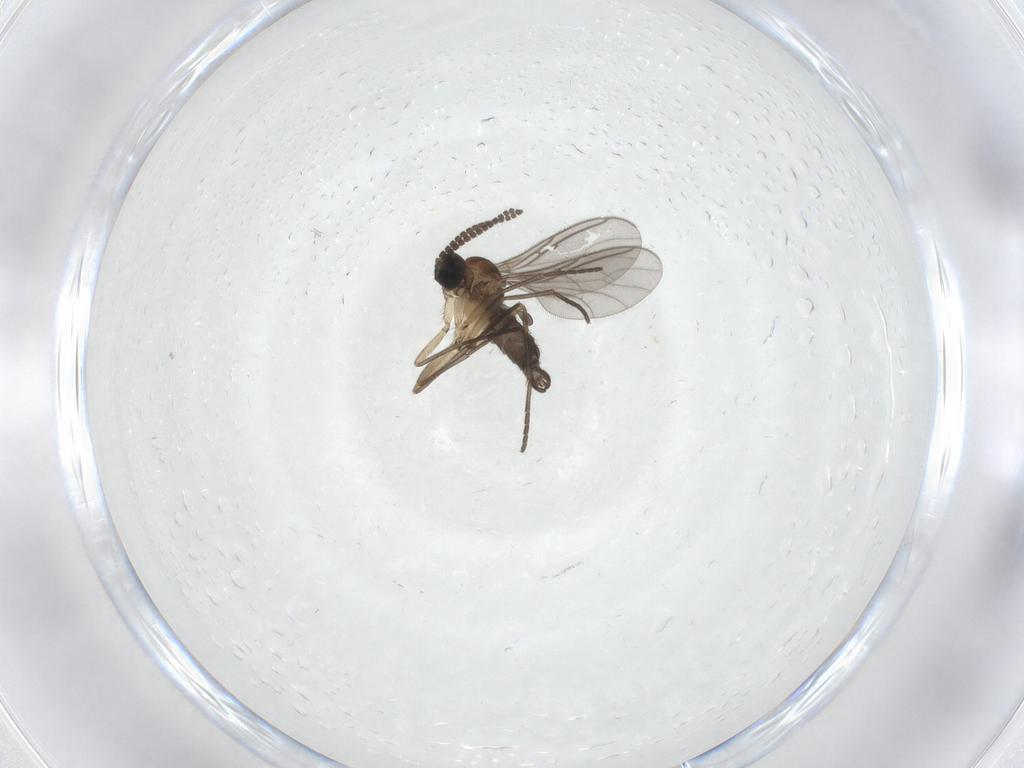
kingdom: Animalia
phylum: Arthropoda
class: Insecta
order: Diptera
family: Sciaridae
